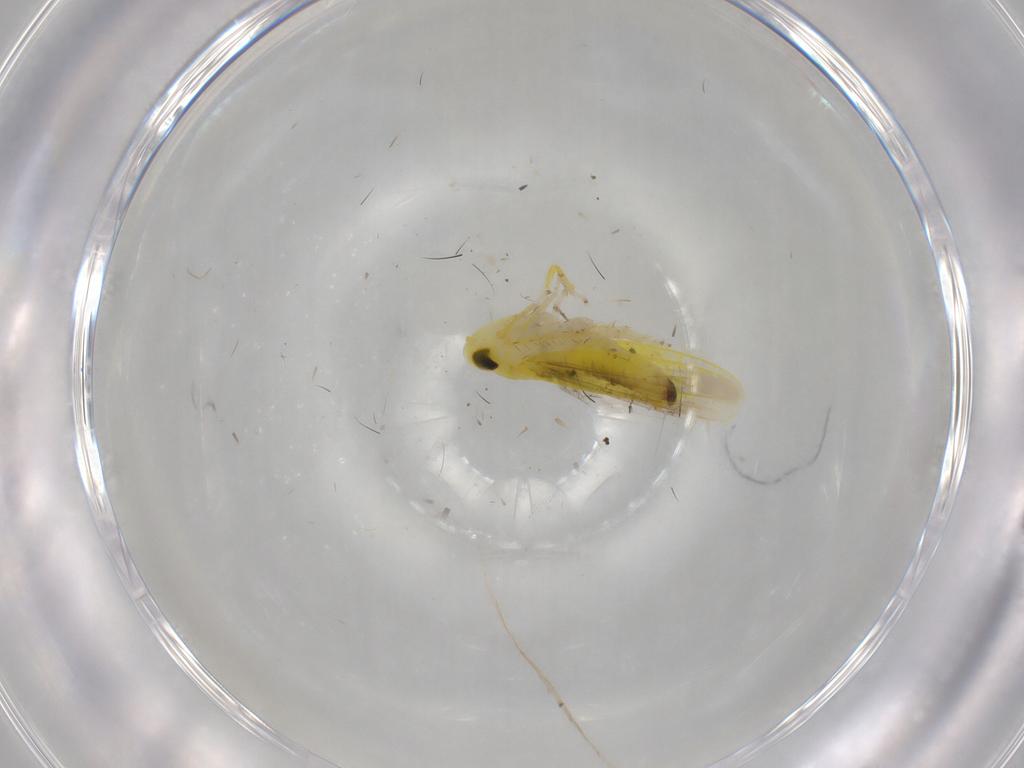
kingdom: Animalia
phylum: Arthropoda
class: Insecta
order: Hemiptera
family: Cicadellidae
